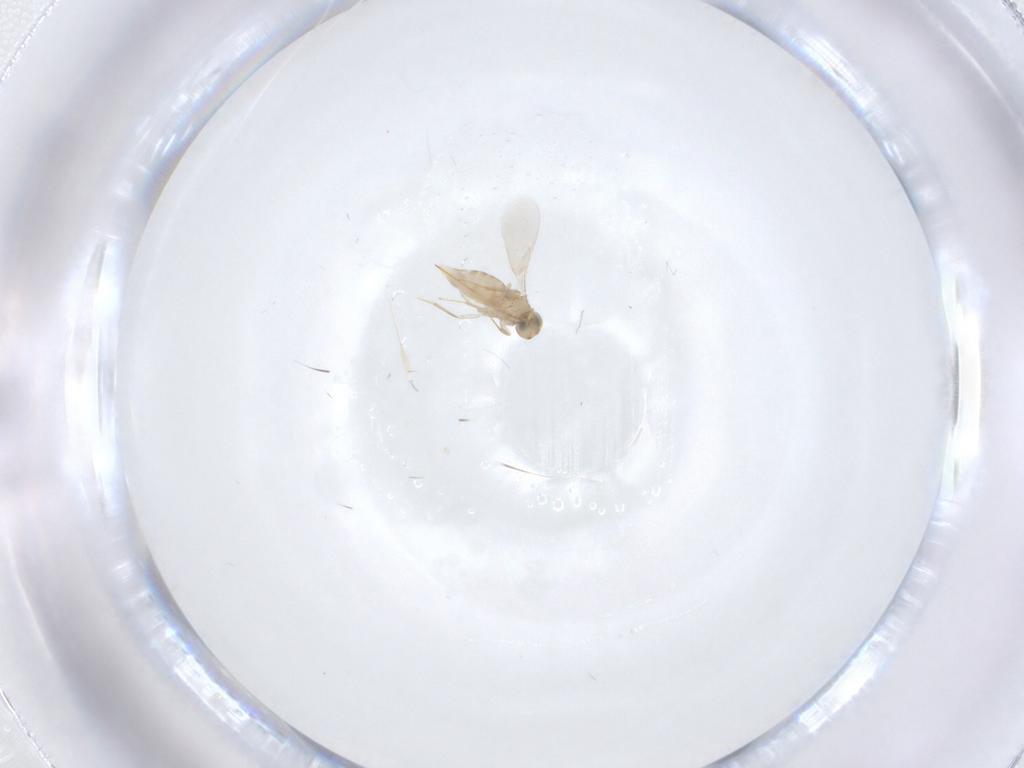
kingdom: Animalia
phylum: Arthropoda
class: Insecta
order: Hymenoptera
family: Aphelinidae
